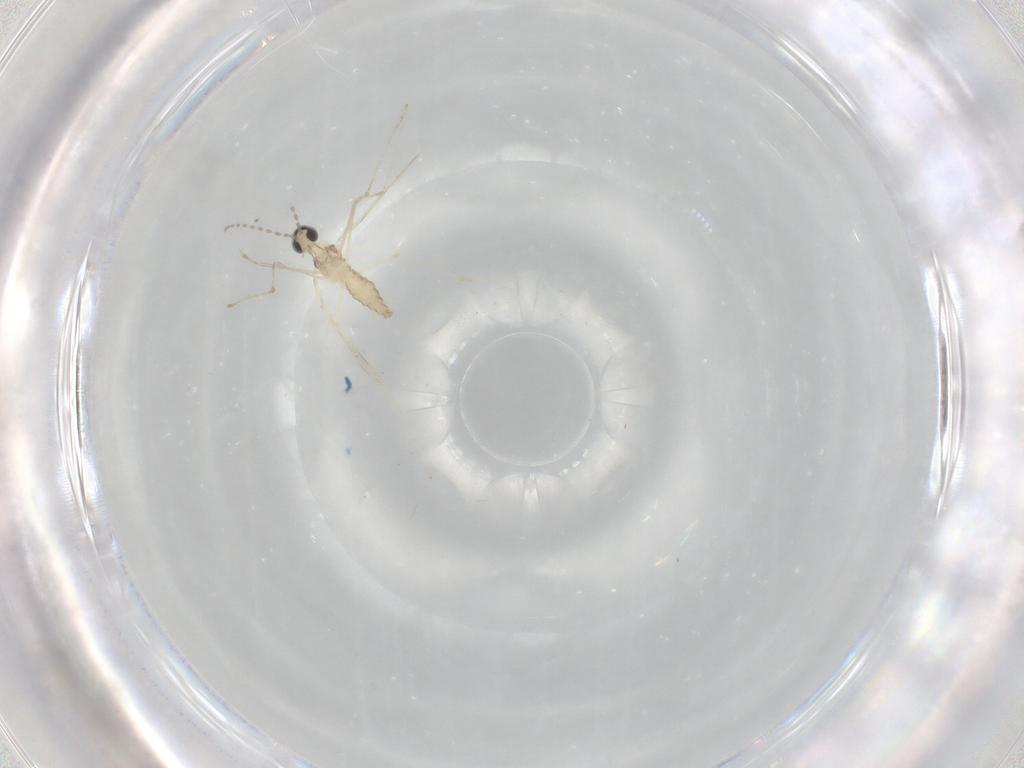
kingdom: Animalia
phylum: Arthropoda
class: Insecta
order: Diptera
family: Cecidomyiidae
